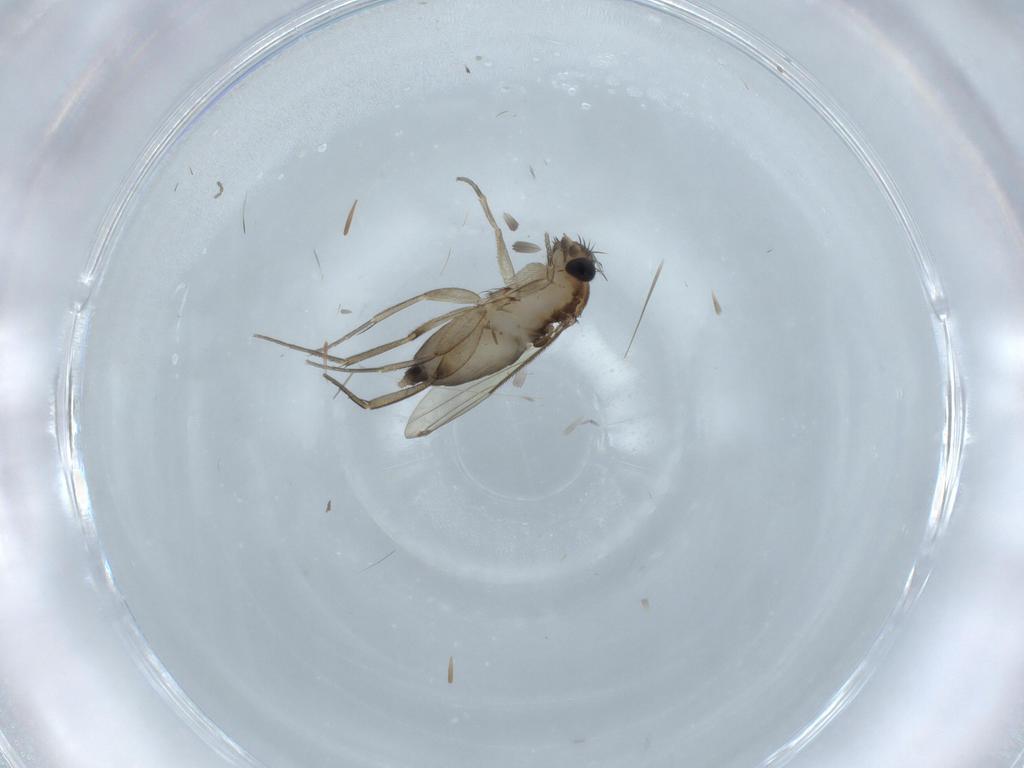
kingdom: Animalia
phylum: Arthropoda
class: Insecta
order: Diptera
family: Phoridae
